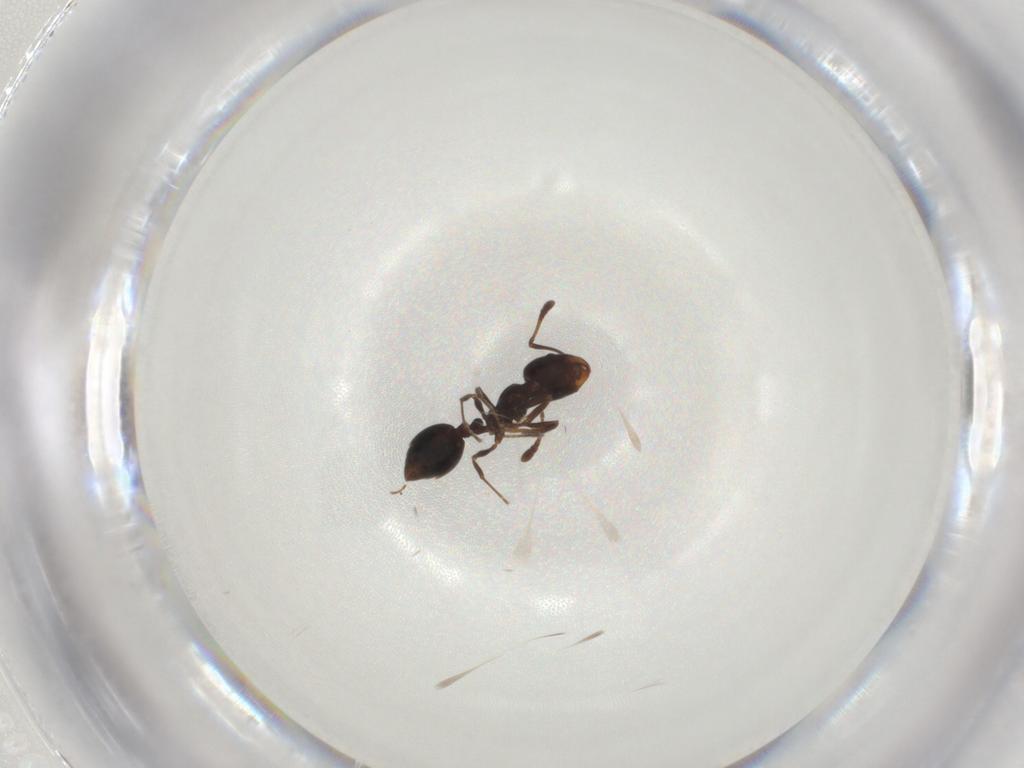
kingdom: Animalia
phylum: Arthropoda
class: Insecta
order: Hymenoptera
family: Formicidae
